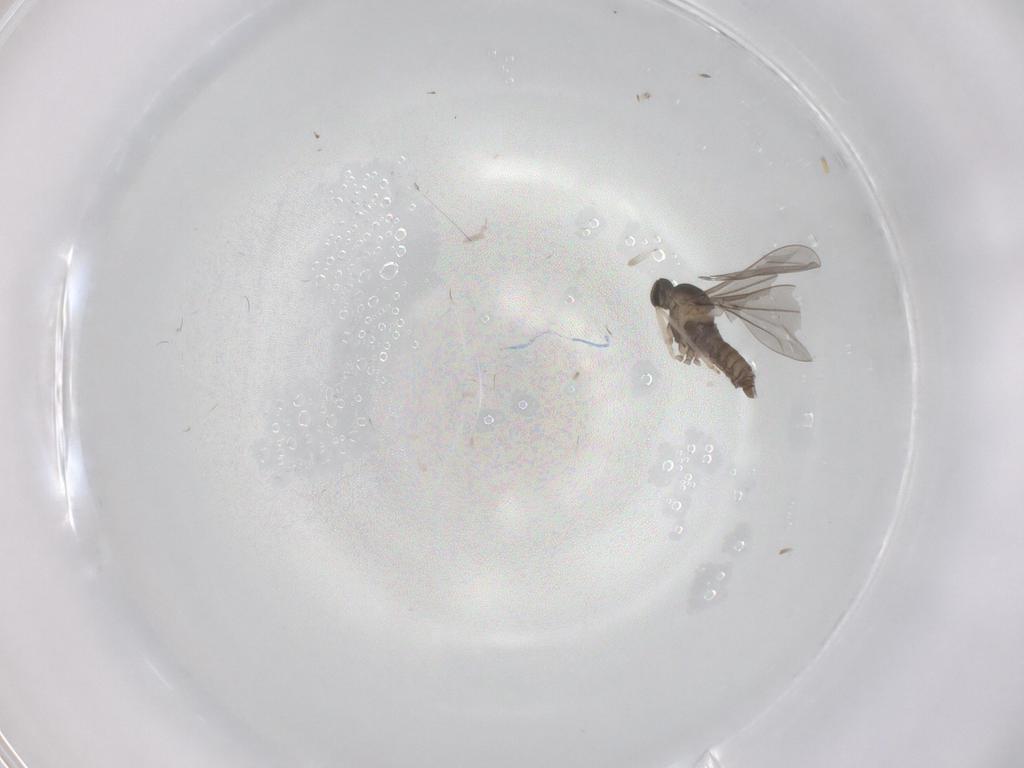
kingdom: Animalia
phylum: Arthropoda
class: Insecta
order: Diptera
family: Cecidomyiidae
